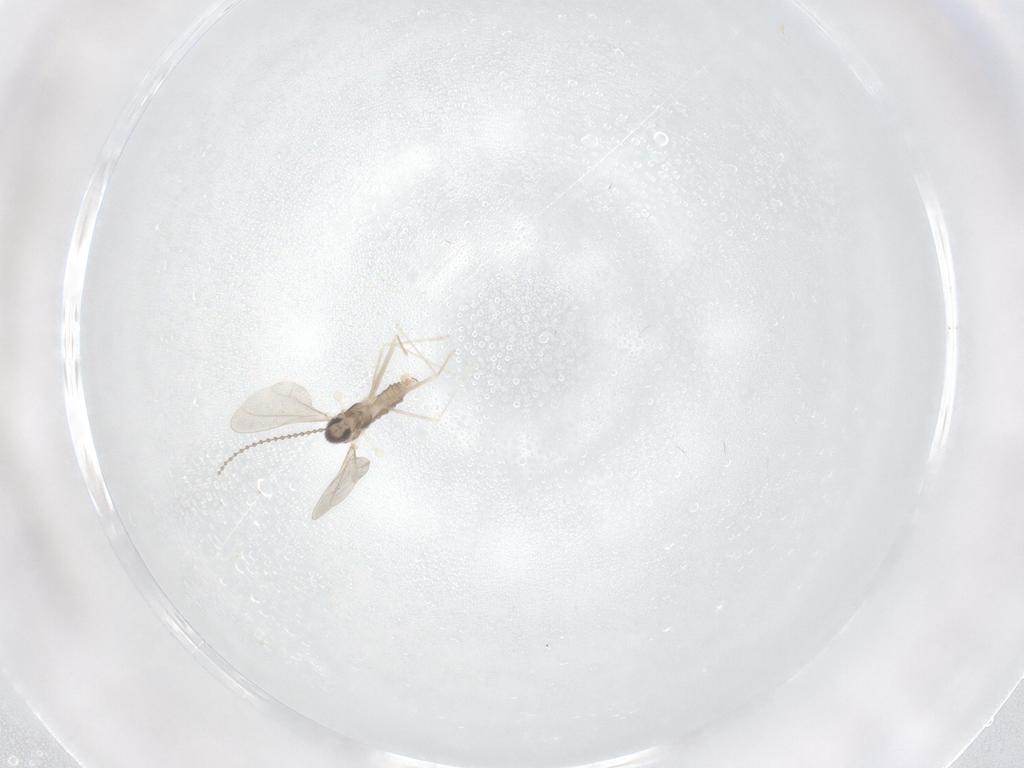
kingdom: Animalia
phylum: Arthropoda
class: Insecta
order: Diptera
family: Cecidomyiidae
